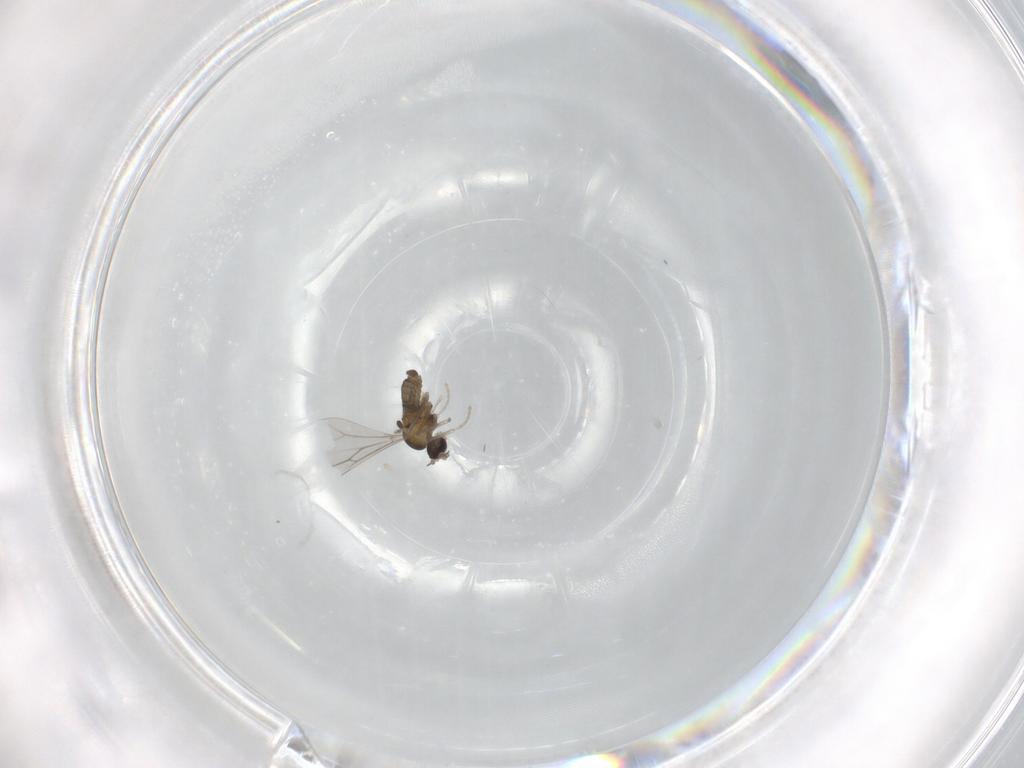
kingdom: Animalia
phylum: Arthropoda
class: Insecta
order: Diptera
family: Cecidomyiidae
